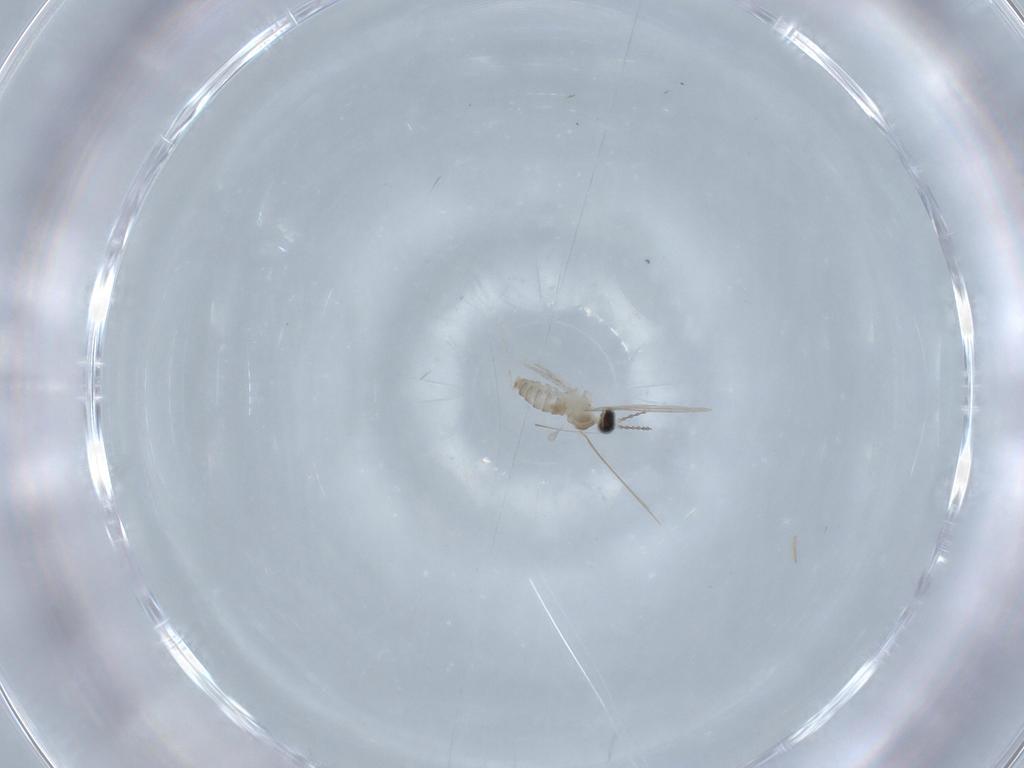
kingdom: Animalia
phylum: Arthropoda
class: Insecta
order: Diptera
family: Cecidomyiidae
